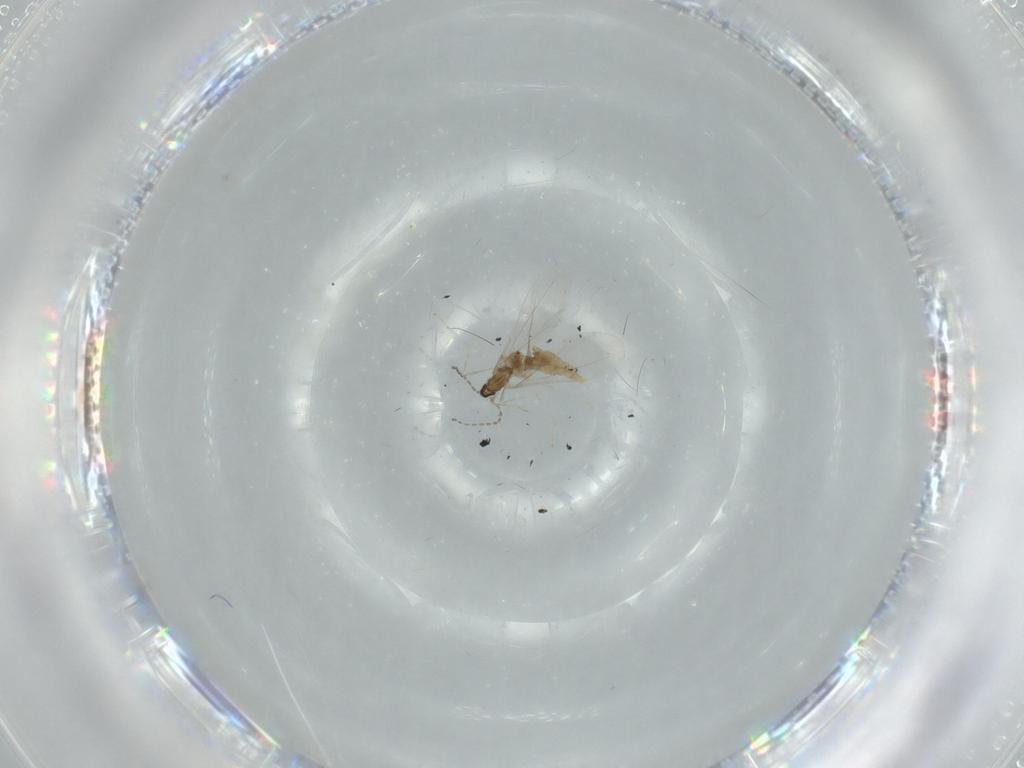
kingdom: Animalia
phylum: Arthropoda
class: Insecta
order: Diptera
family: Cecidomyiidae
